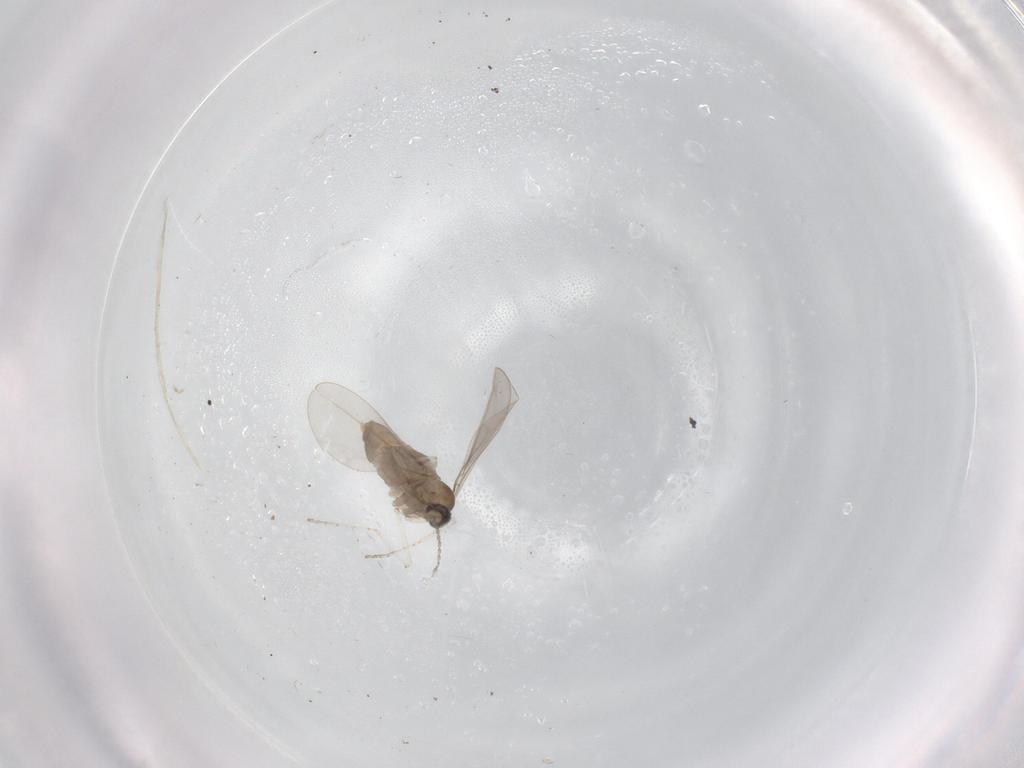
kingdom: Animalia
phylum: Arthropoda
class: Insecta
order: Diptera
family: Cecidomyiidae
